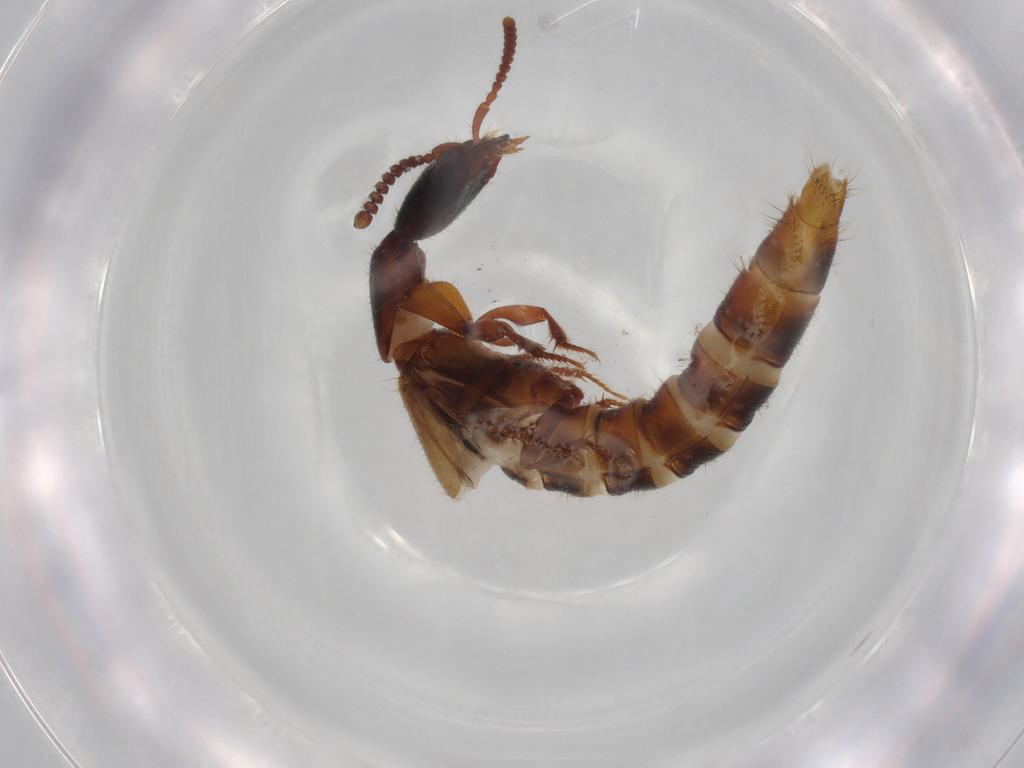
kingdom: Animalia
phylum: Arthropoda
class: Insecta
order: Coleoptera
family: Staphylinidae
